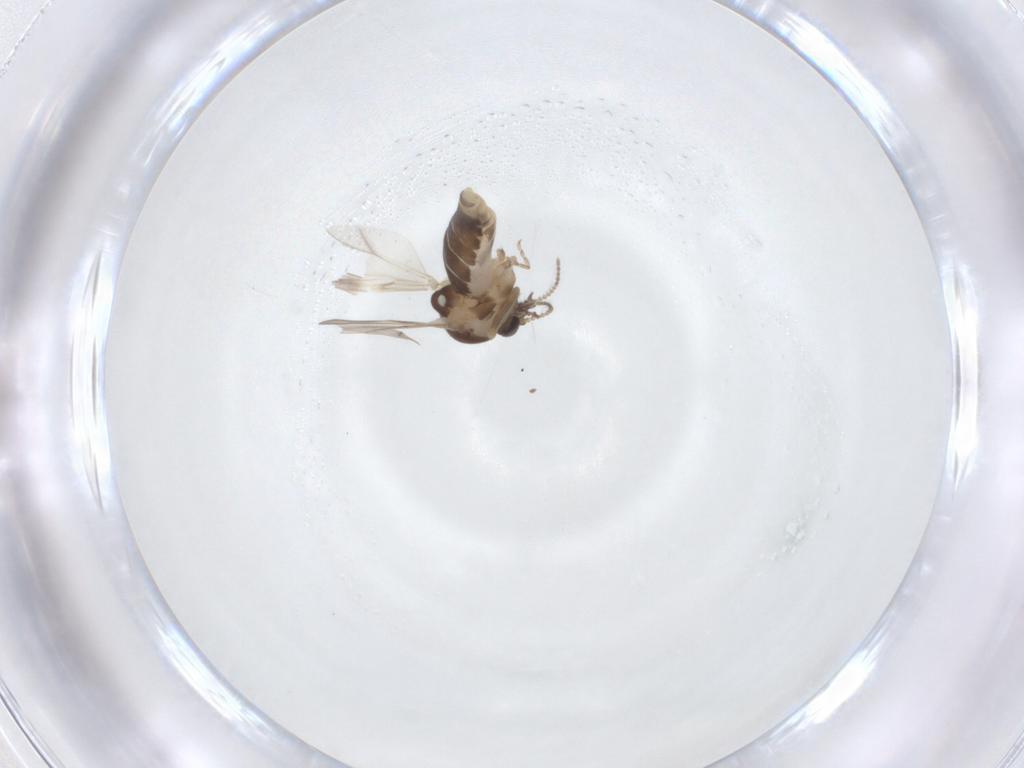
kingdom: Animalia
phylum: Arthropoda
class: Insecta
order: Diptera
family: Ceratopogonidae
